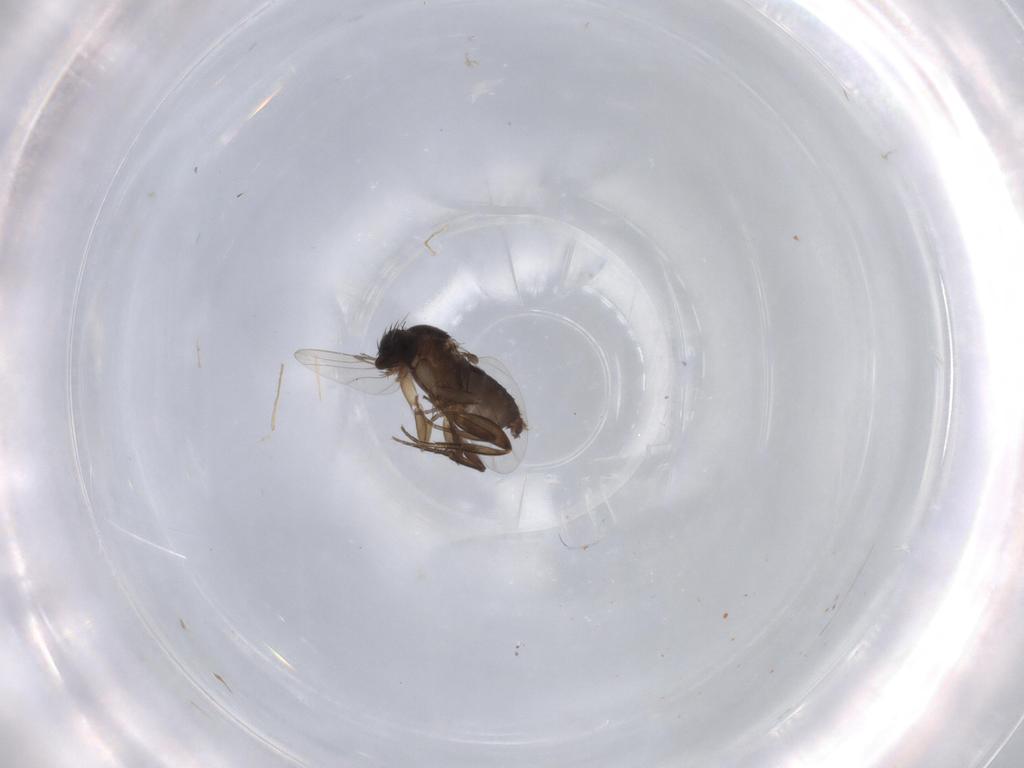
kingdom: Animalia
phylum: Arthropoda
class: Insecta
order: Diptera
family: Phoridae
